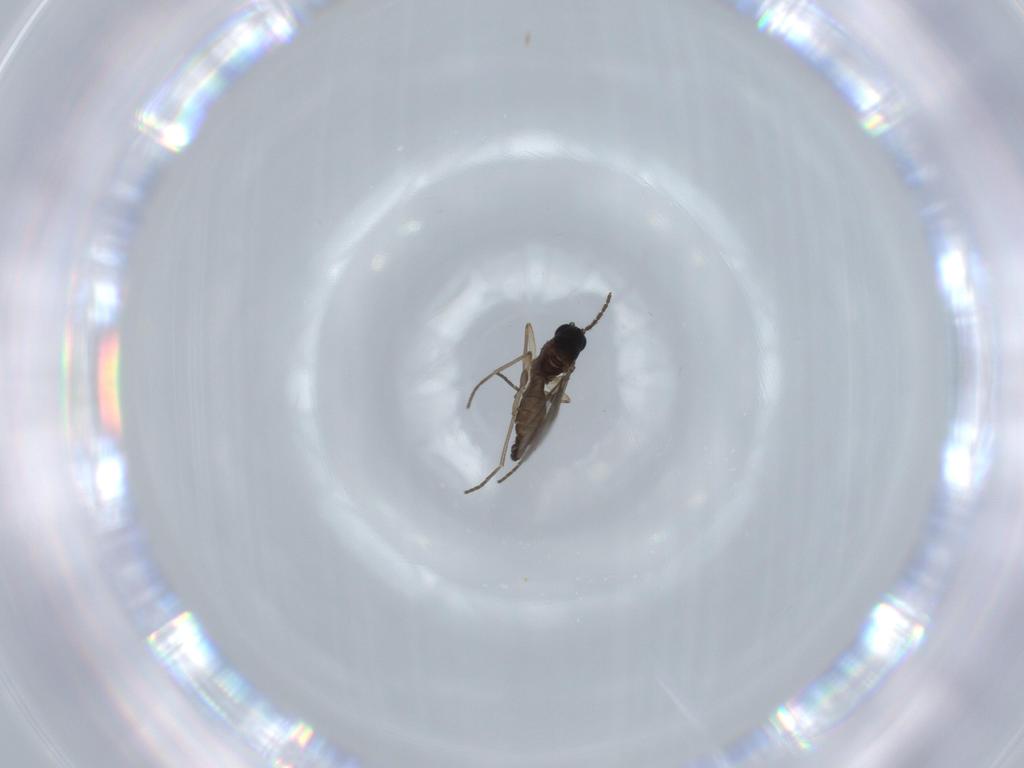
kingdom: Animalia
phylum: Arthropoda
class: Insecta
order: Diptera
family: Sciaridae
